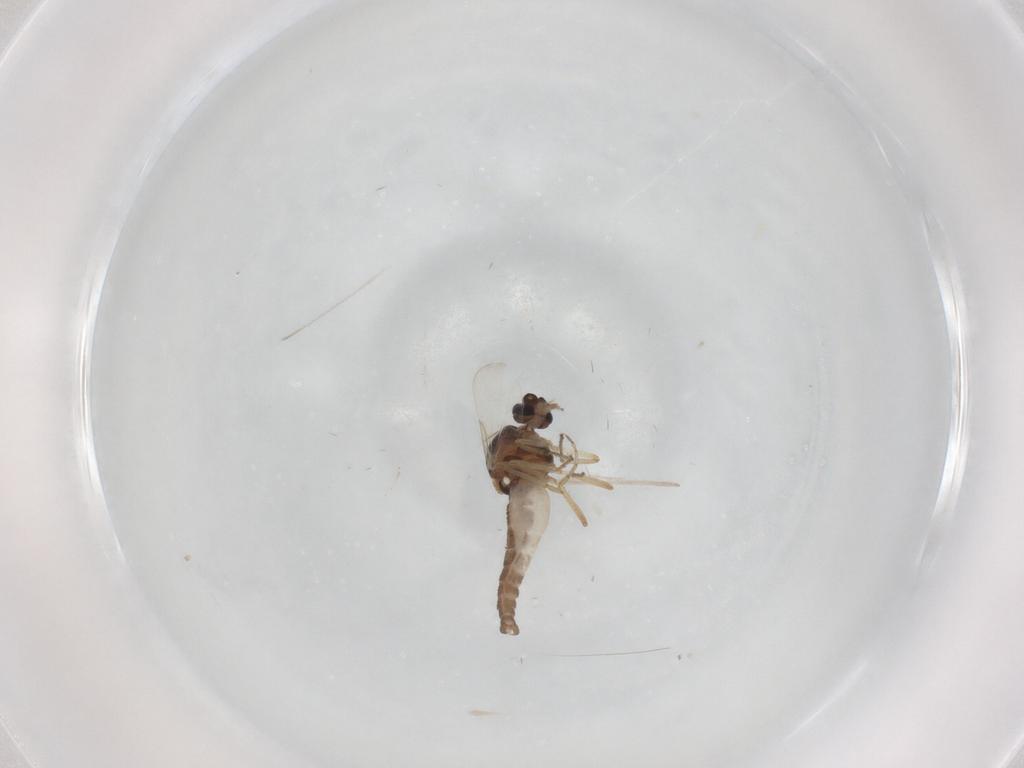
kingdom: Animalia
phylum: Arthropoda
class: Insecta
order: Diptera
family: Ceratopogonidae
